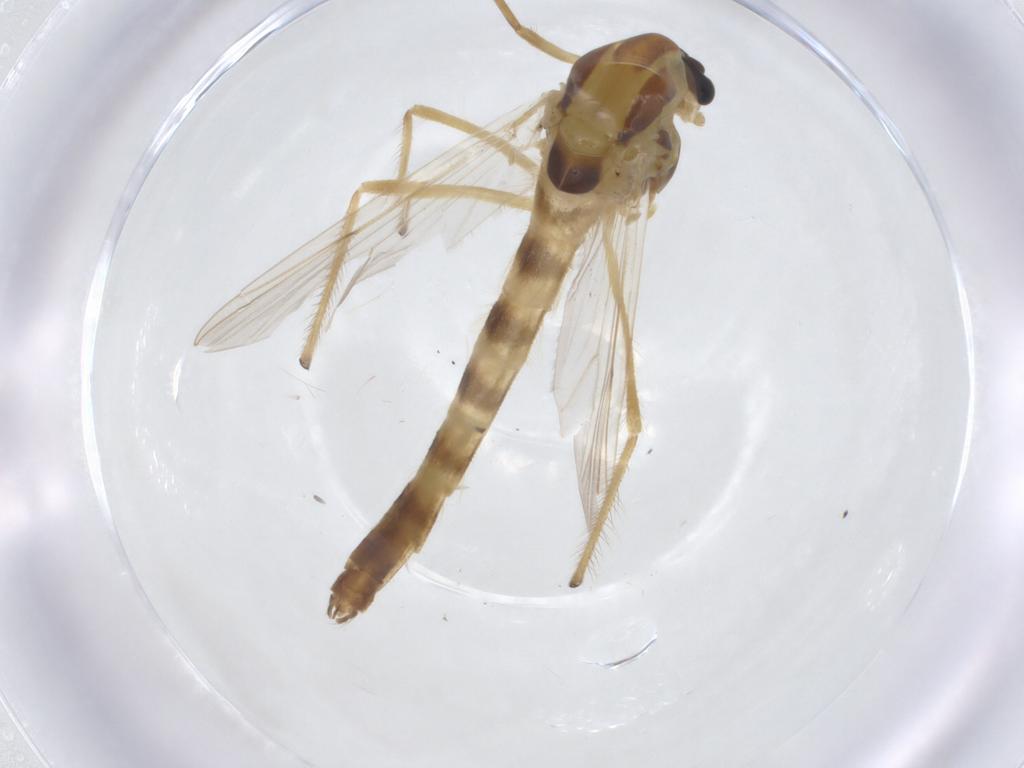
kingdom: Animalia
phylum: Arthropoda
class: Insecta
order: Diptera
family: Chironomidae
